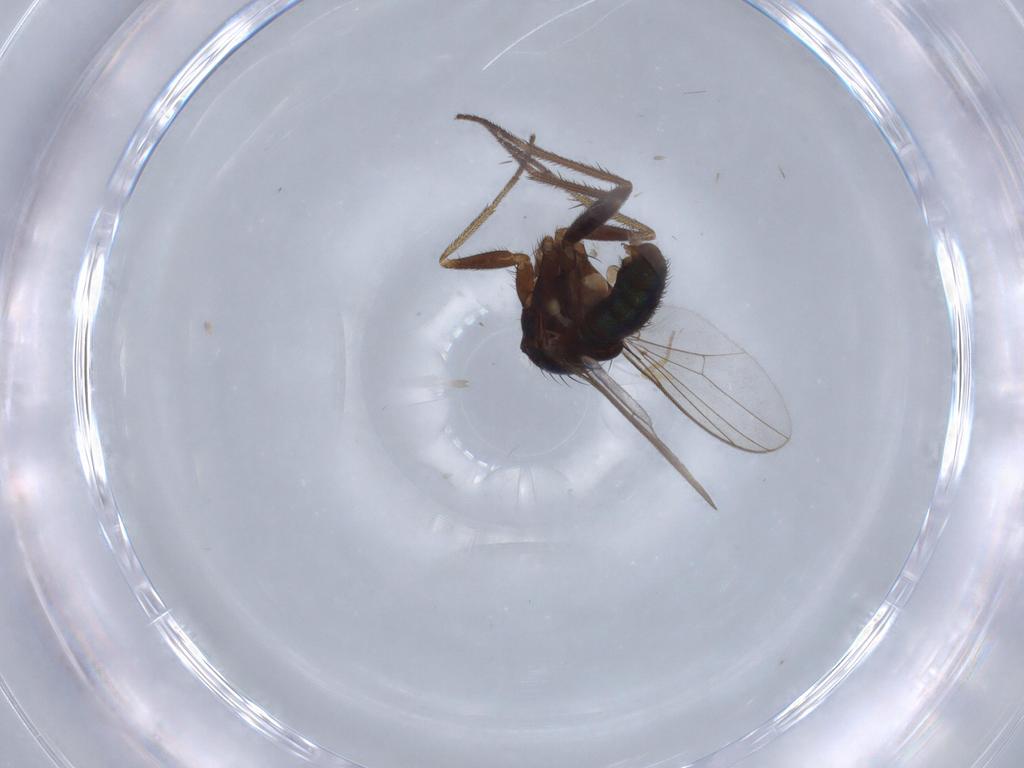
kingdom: Animalia
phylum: Arthropoda
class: Insecta
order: Diptera
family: Dolichopodidae
